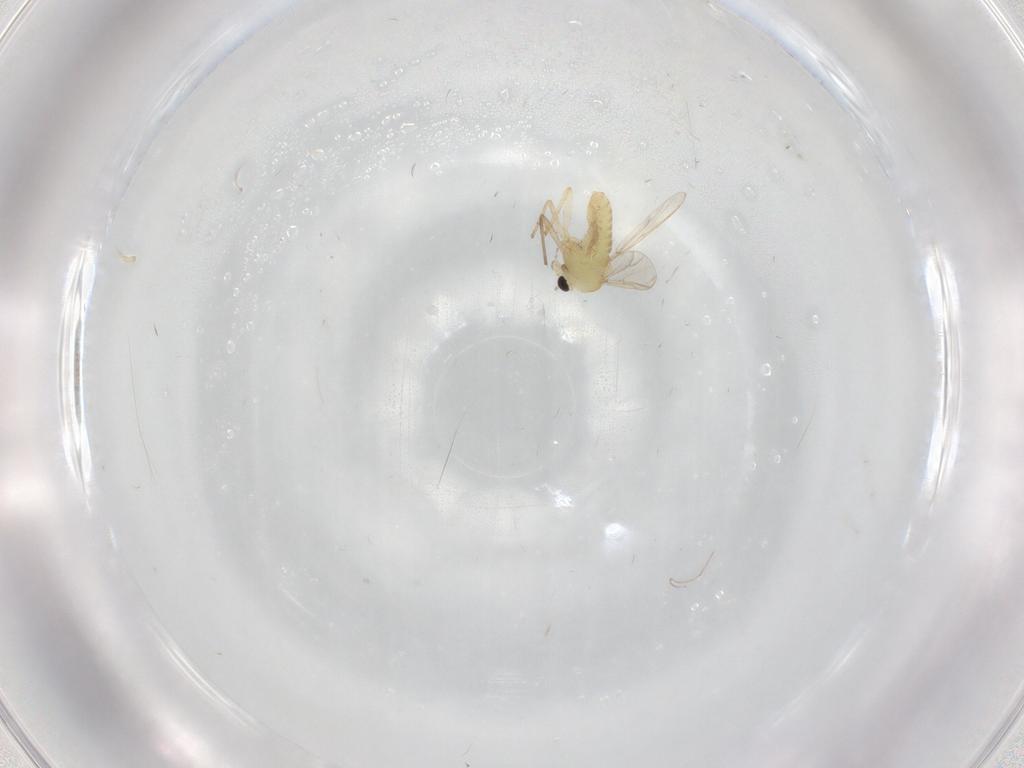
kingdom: Animalia
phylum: Arthropoda
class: Insecta
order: Diptera
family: Chironomidae
